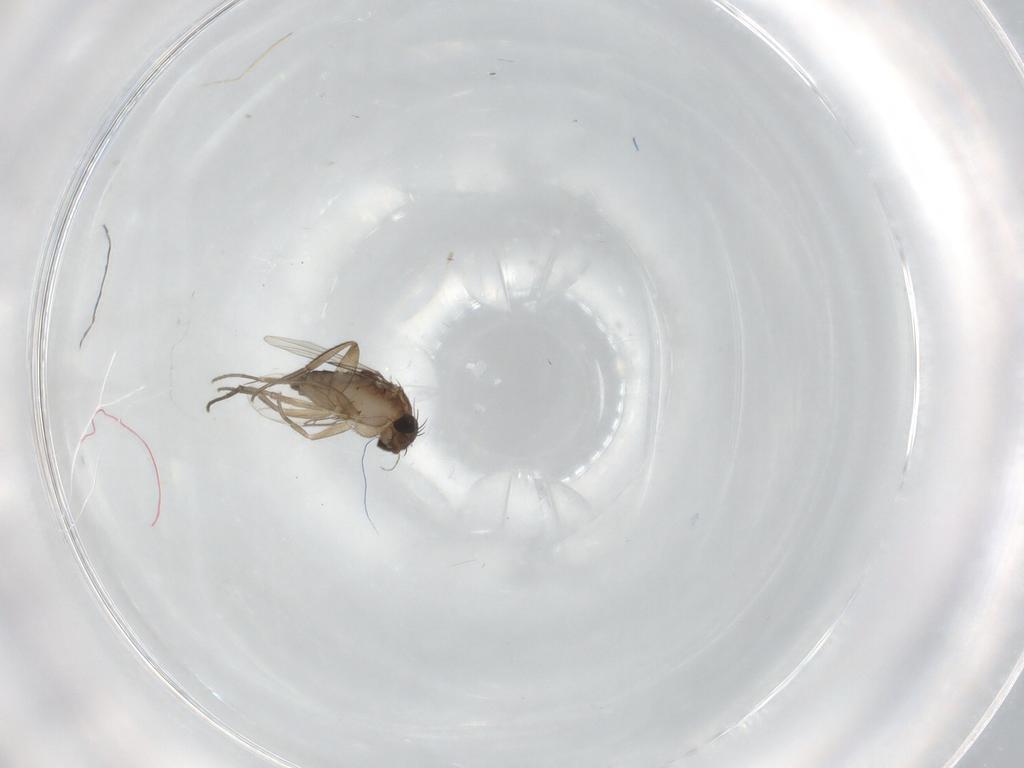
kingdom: Animalia
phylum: Arthropoda
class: Insecta
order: Diptera
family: Phoridae
